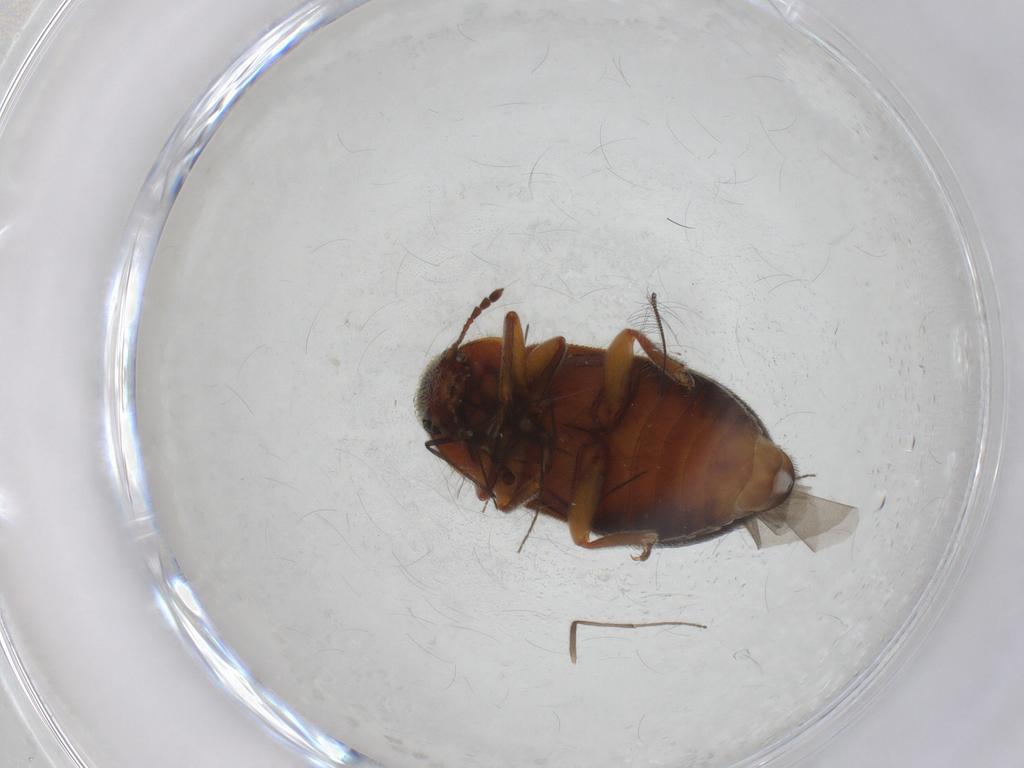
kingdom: Animalia
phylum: Arthropoda
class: Insecta
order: Coleoptera
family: Byturidae
